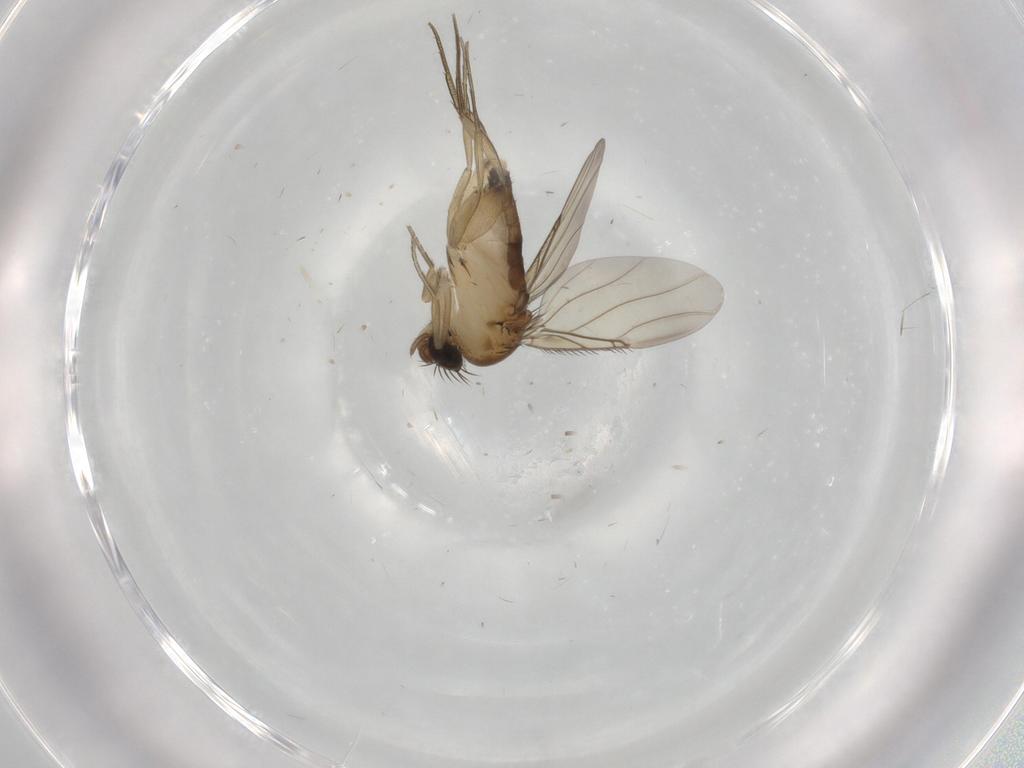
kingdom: Animalia
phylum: Arthropoda
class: Insecta
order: Diptera
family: Phoridae
